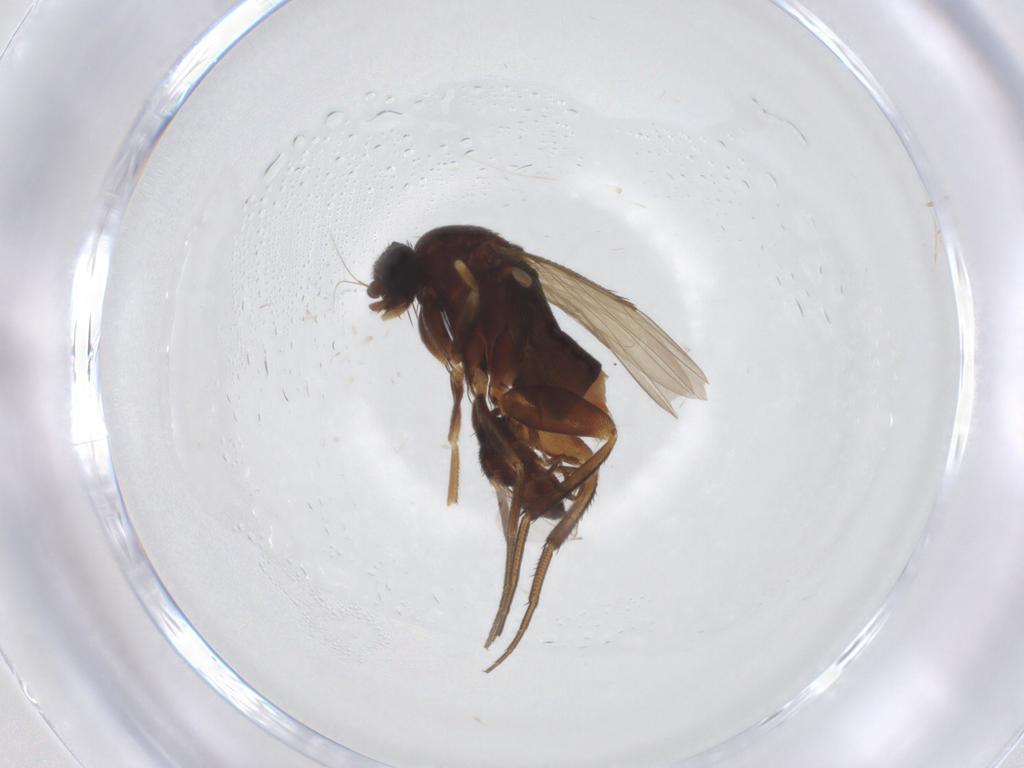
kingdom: Animalia
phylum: Arthropoda
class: Insecta
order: Diptera
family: Phoridae
